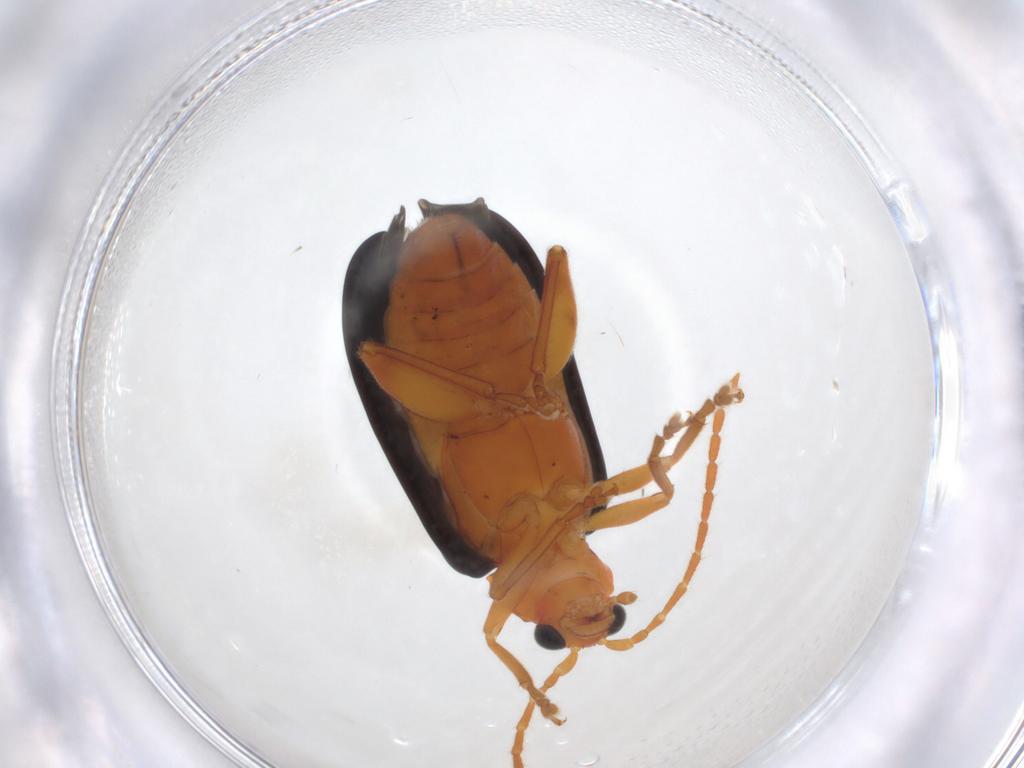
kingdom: Animalia
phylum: Arthropoda
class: Insecta
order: Coleoptera
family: Chrysomelidae
